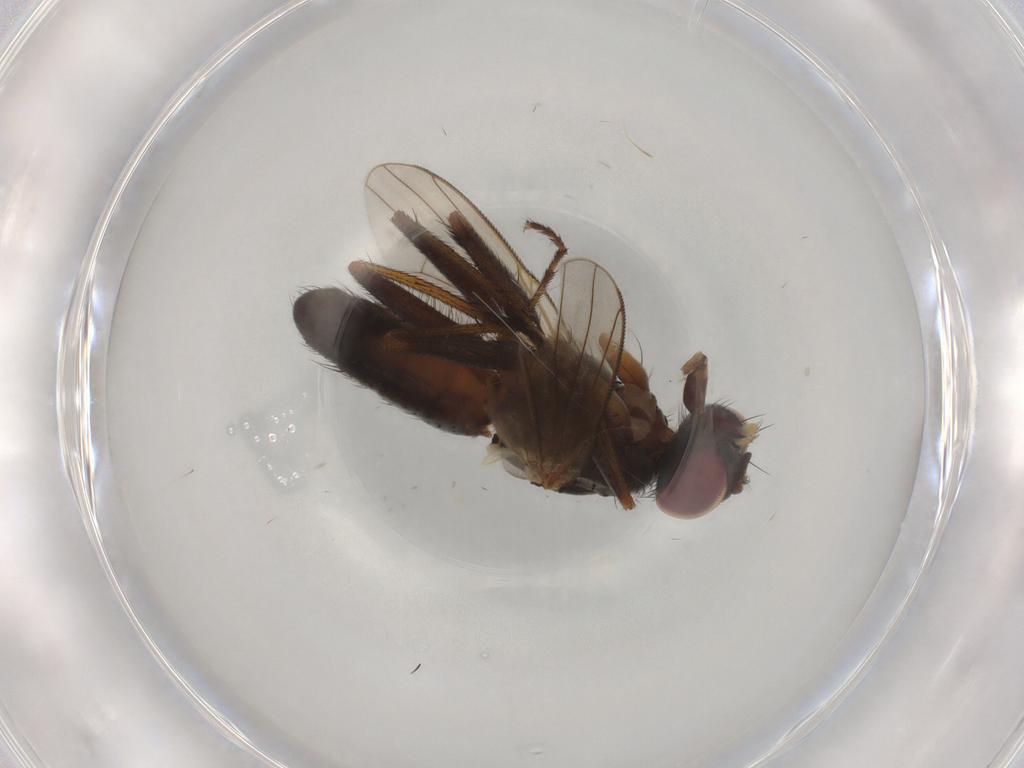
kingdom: Animalia
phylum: Arthropoda
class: Insecta
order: Diptera
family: Muscidae
